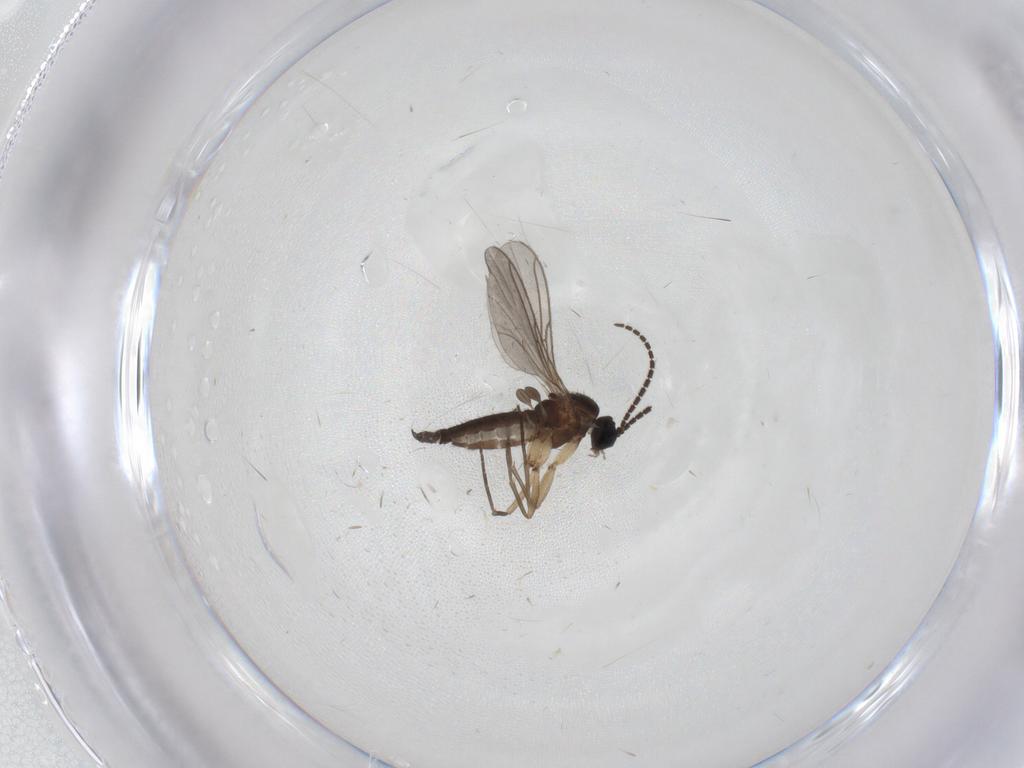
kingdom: Animalia
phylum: Arthropoda
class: Insecta
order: Diptera
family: Sciaridae
